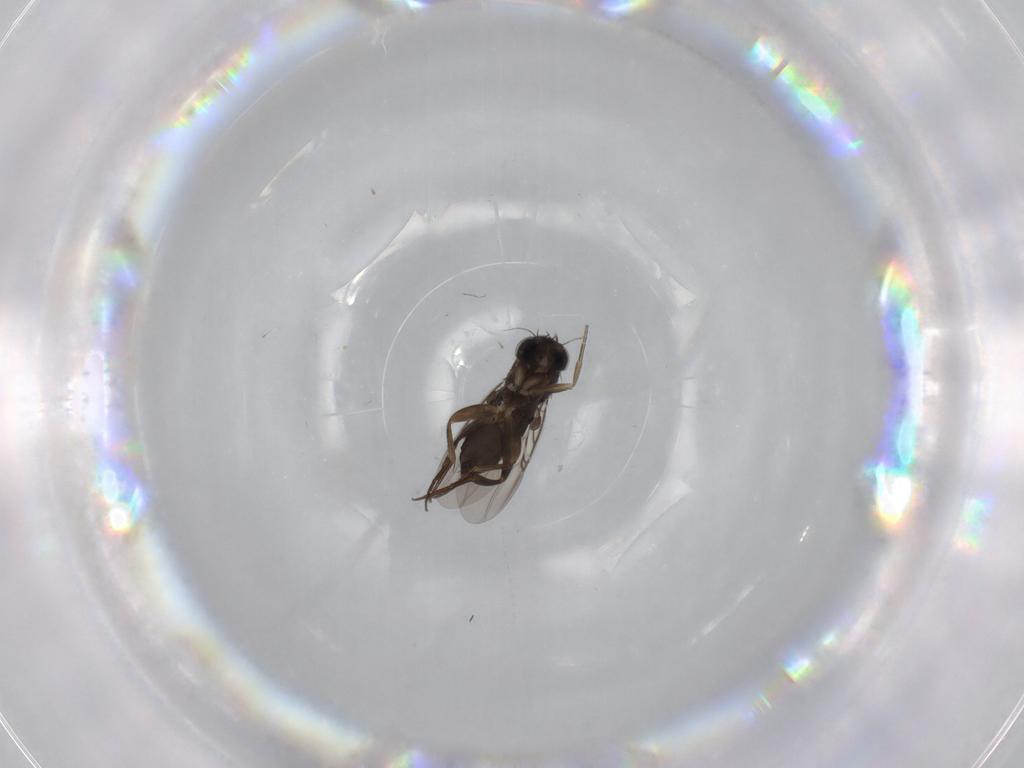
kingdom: Animalia
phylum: Arthropoda
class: Insecta
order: Diptera
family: Phoridae
